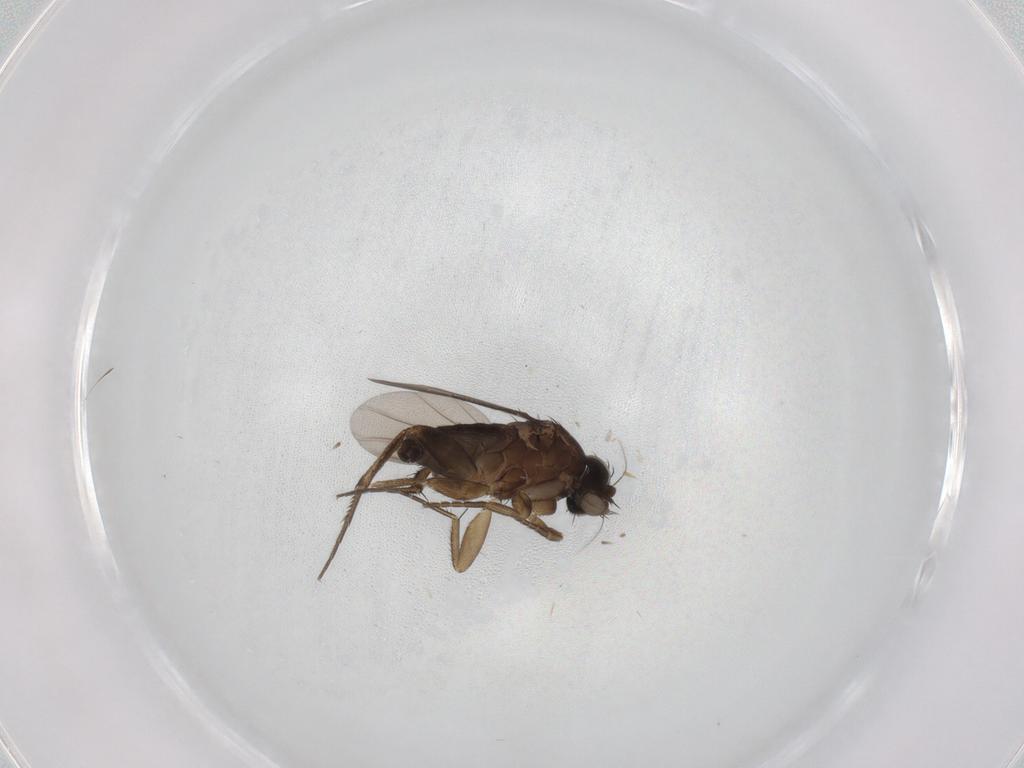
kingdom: Animalia
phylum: Arthropoda
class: Insecta
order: Diptera
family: Phoridae
